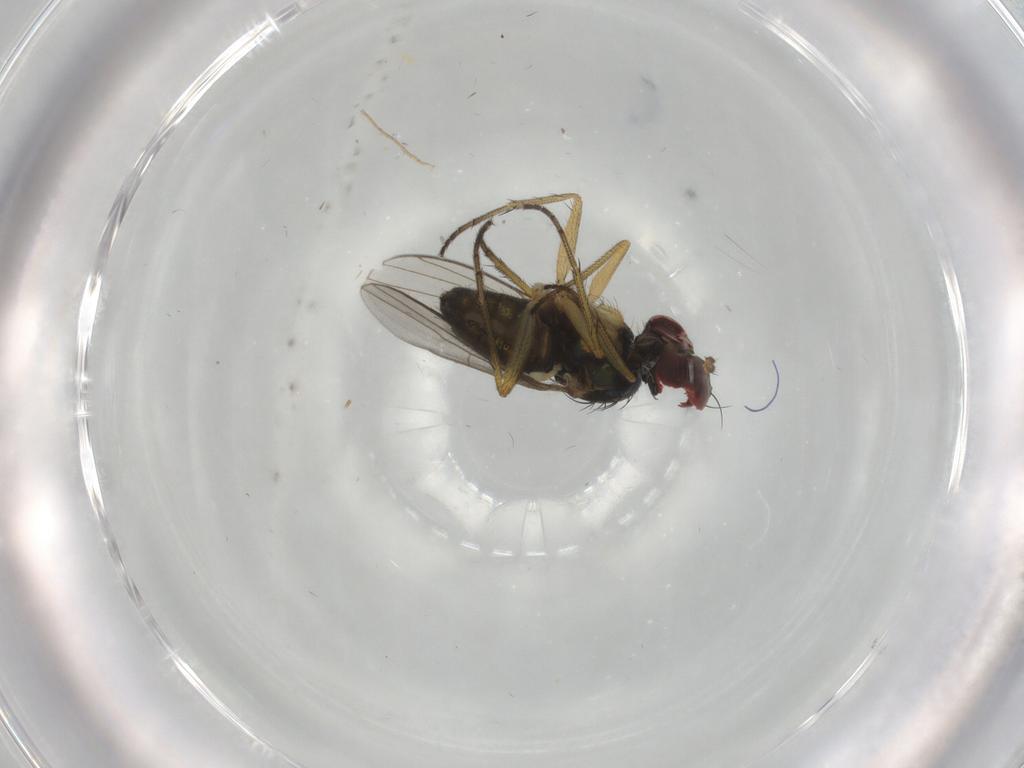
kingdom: Animalia
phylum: Arthropoda
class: Insecta
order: Diptera
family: Dolichopodidae
